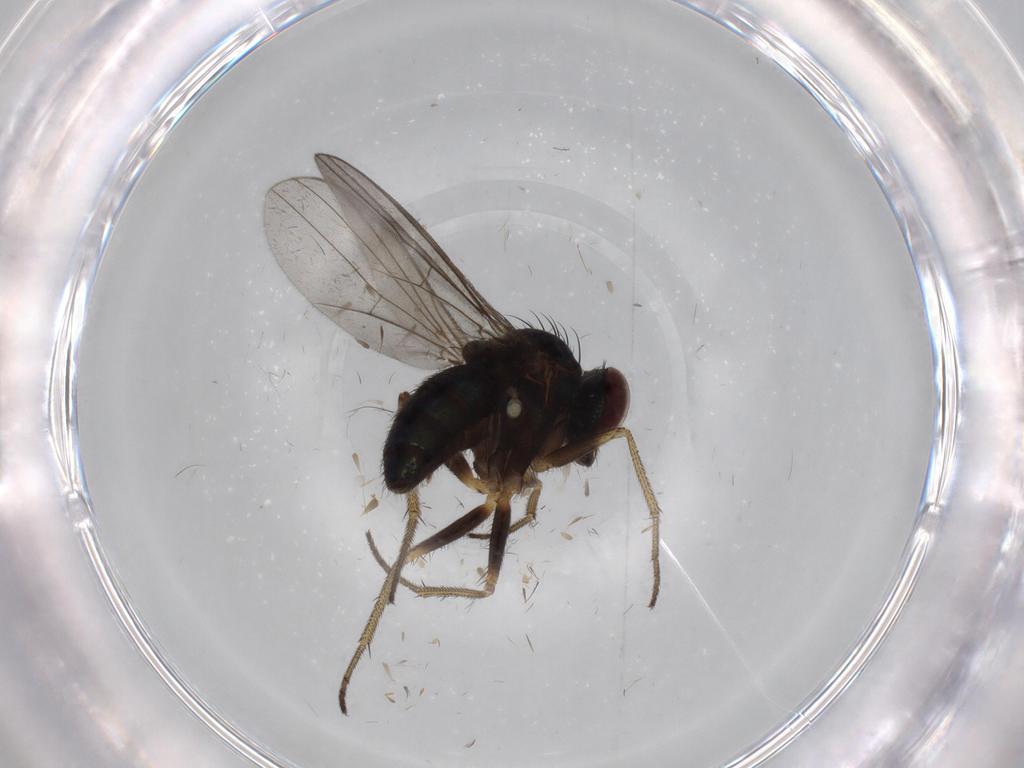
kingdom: Animalia
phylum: Arthropoda
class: Insecta
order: Diptera
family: Dolichopodidae
